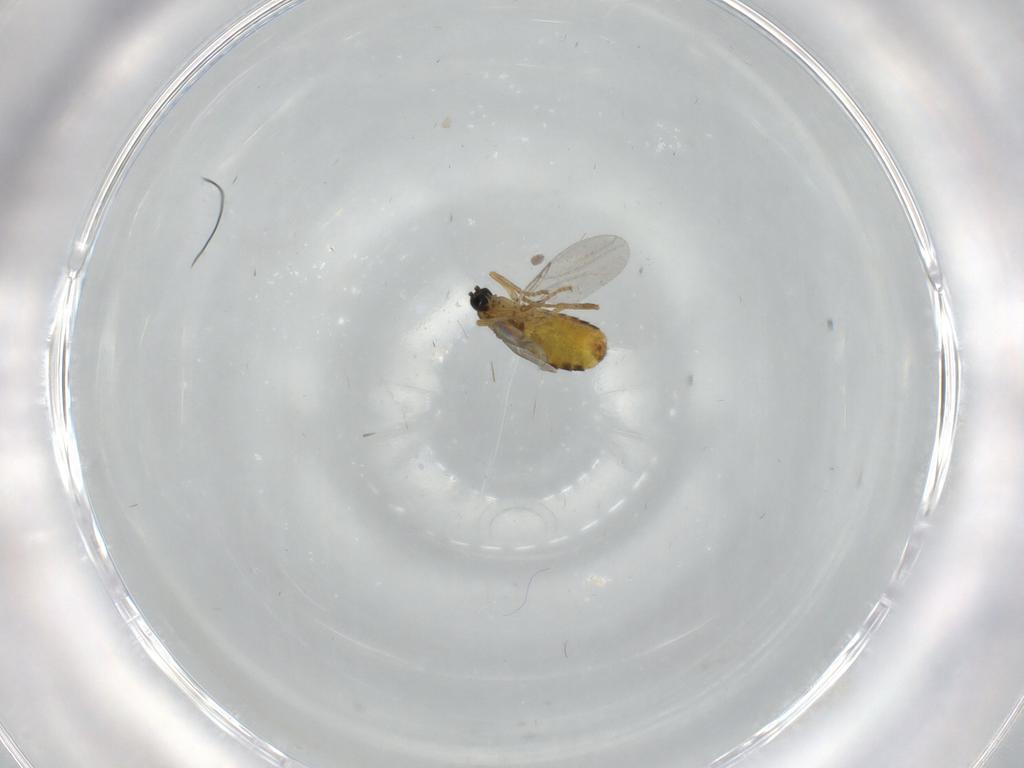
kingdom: Animalia
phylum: Arthropoda
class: Insecta
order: Diptera
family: Scatopsidae
